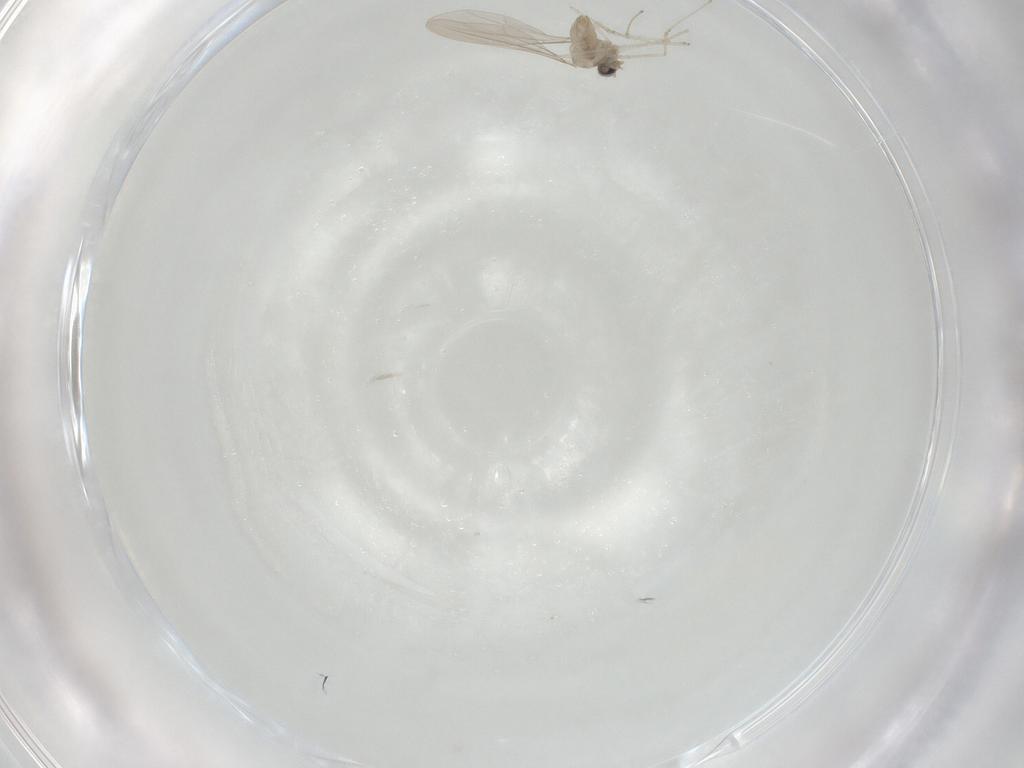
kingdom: Animalia
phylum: Arthropoda
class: Insecta
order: Diptera
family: Cecidomyiidae
